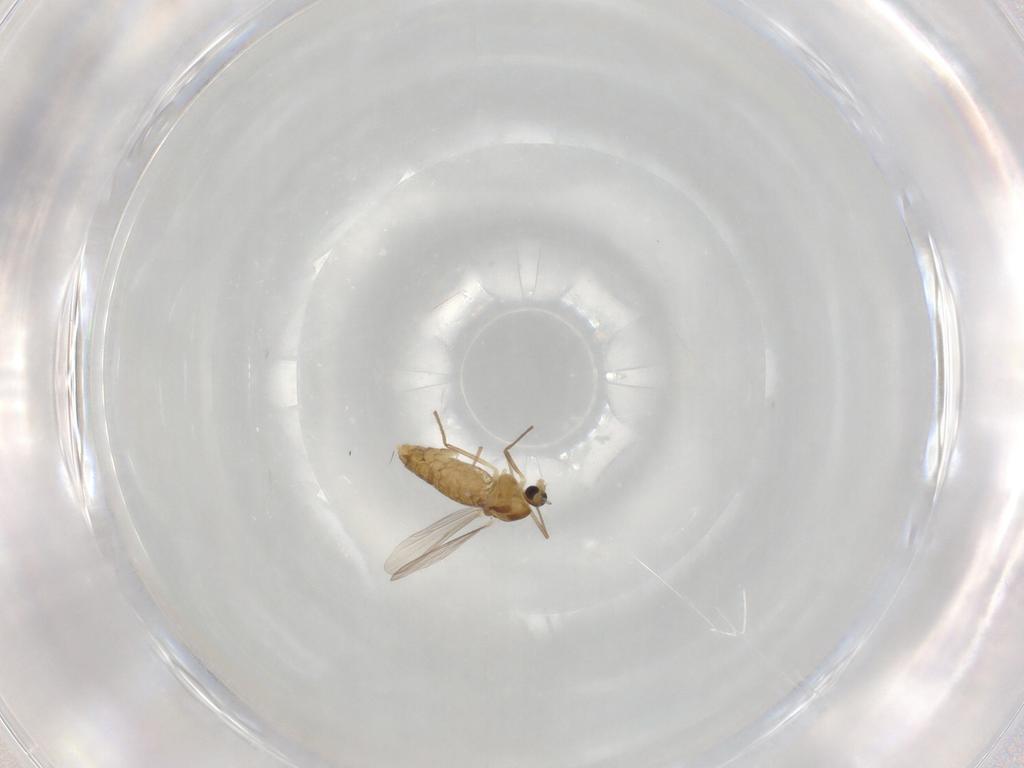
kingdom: Animalia
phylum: Arthropoda
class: Insecta
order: Diptera
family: Chironomidae
